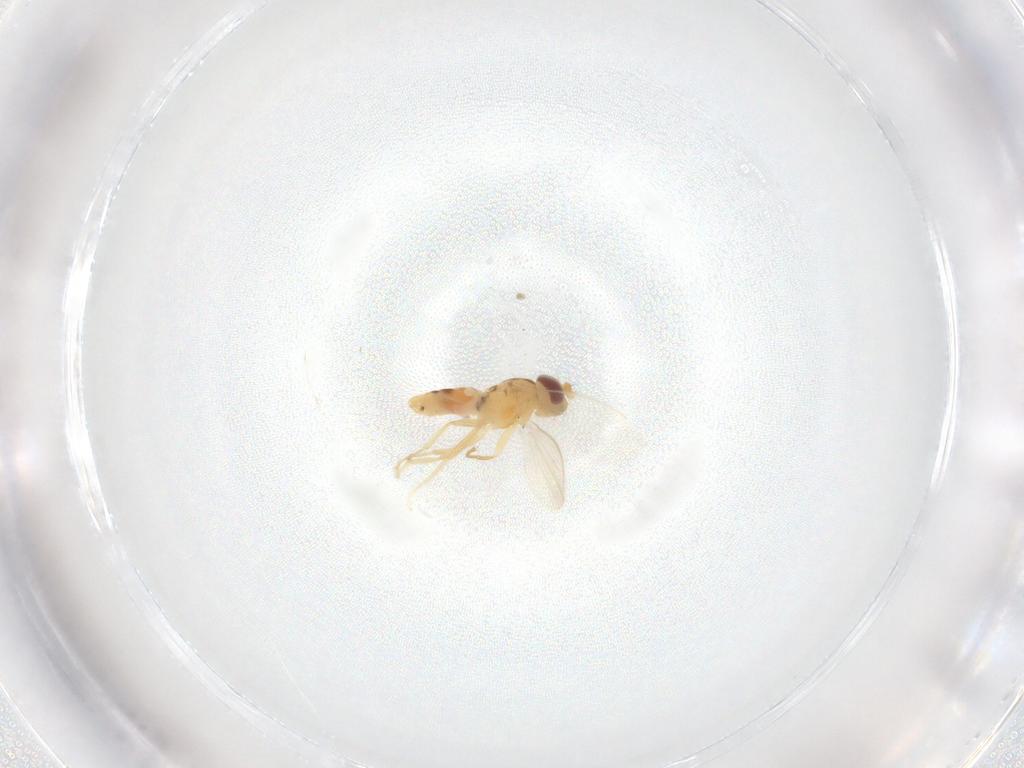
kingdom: Animalia
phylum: Arthropoda
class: Insecta
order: Diptera
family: Periscelididae
